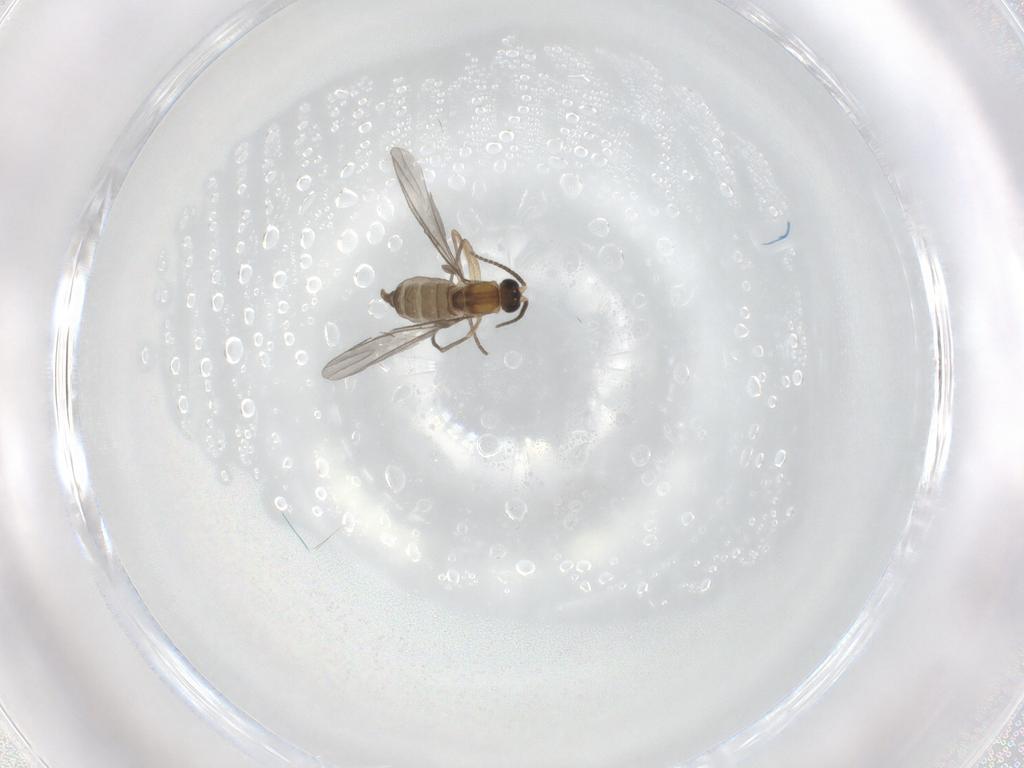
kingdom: Animalia
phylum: Arthropoda
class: Insecta
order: Diptera
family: Sciaridae
